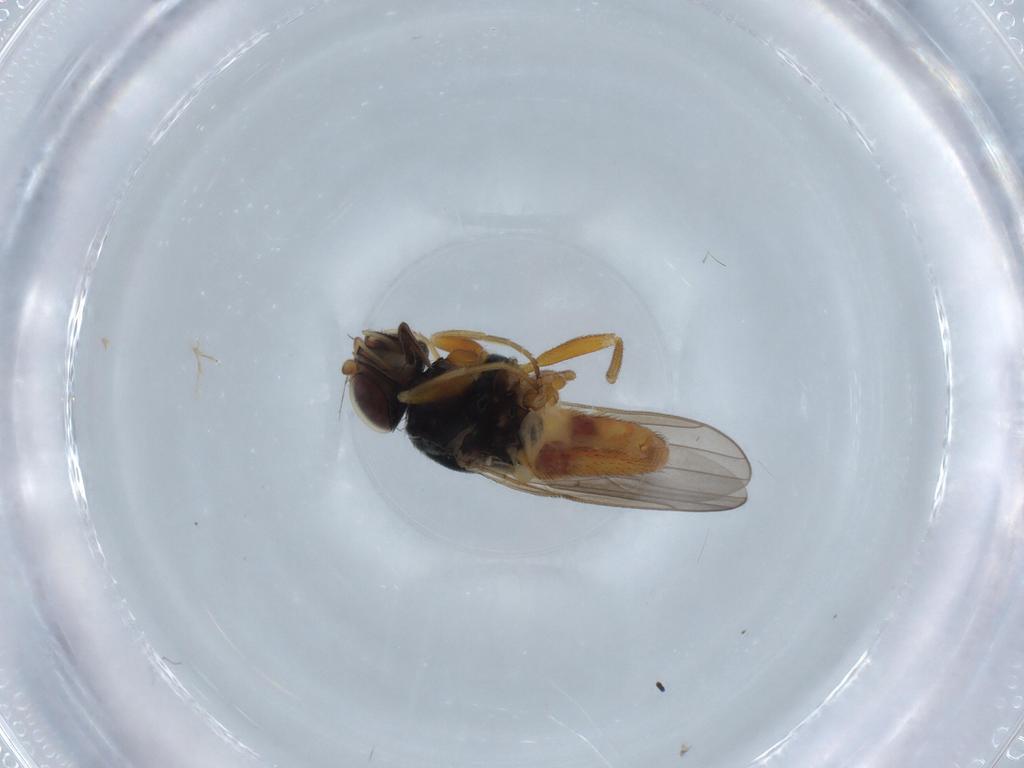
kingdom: Animalia
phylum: Arthropoda
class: Insecta
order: Diptera
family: Chloropidae
